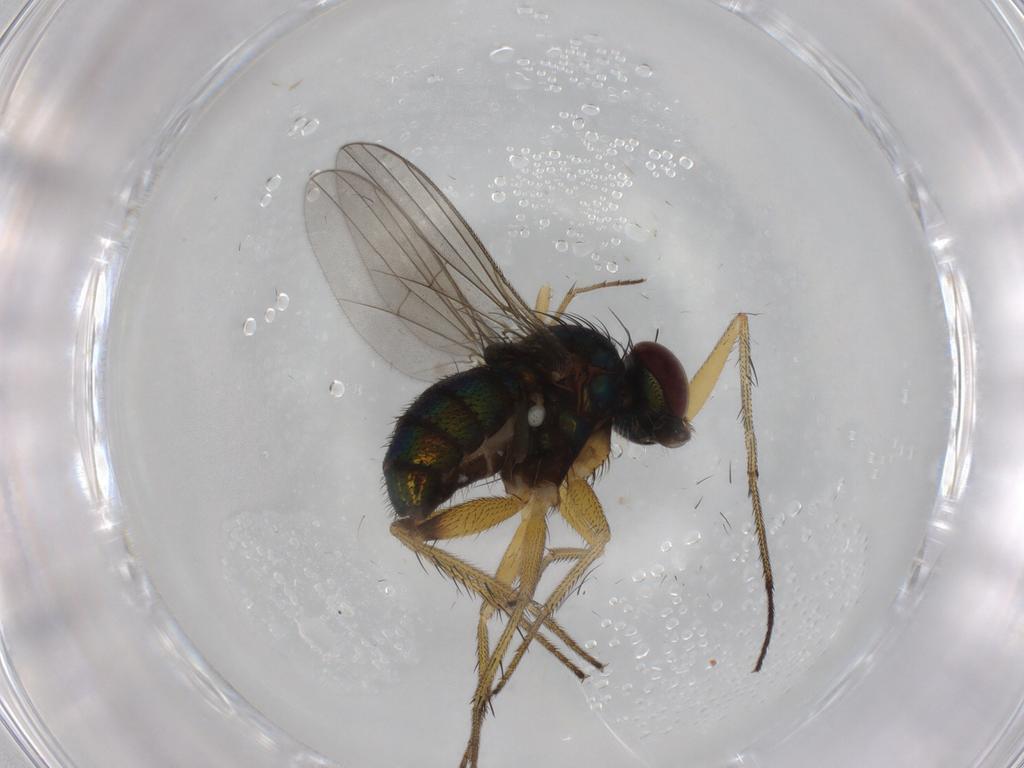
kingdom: Animalia
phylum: Arthropoda
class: Insecta
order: Diptera
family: Dolichopodidae
